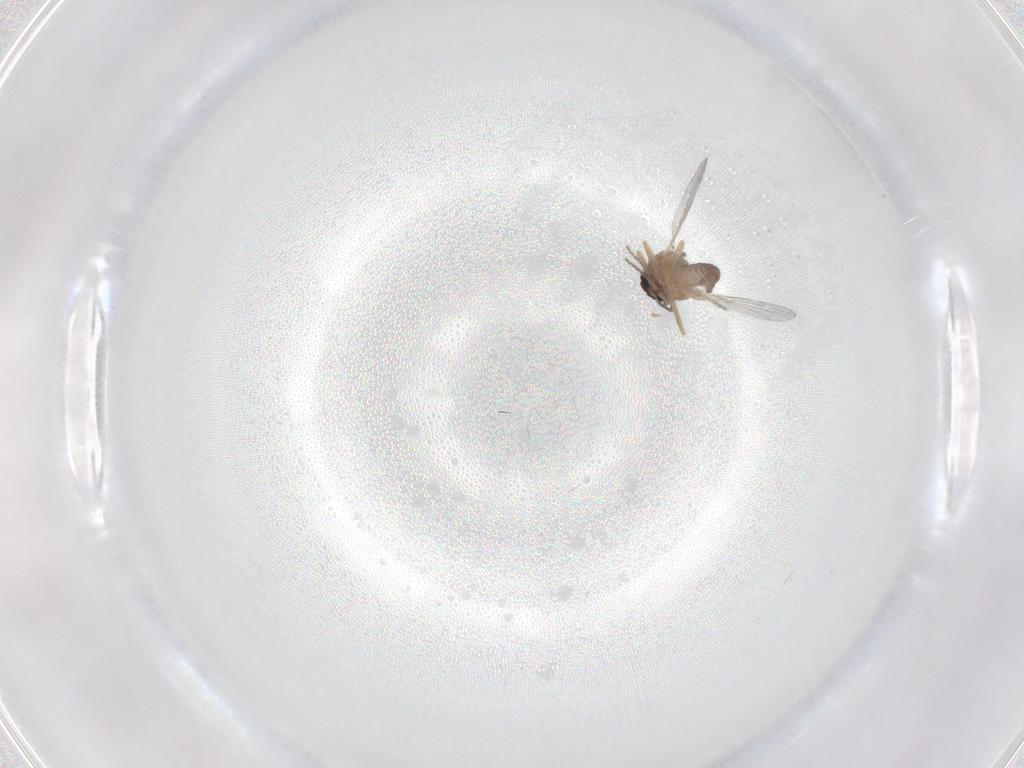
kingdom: Animalia
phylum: Arthropoda
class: Insecta
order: Diptera
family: Ceratopogonidae
